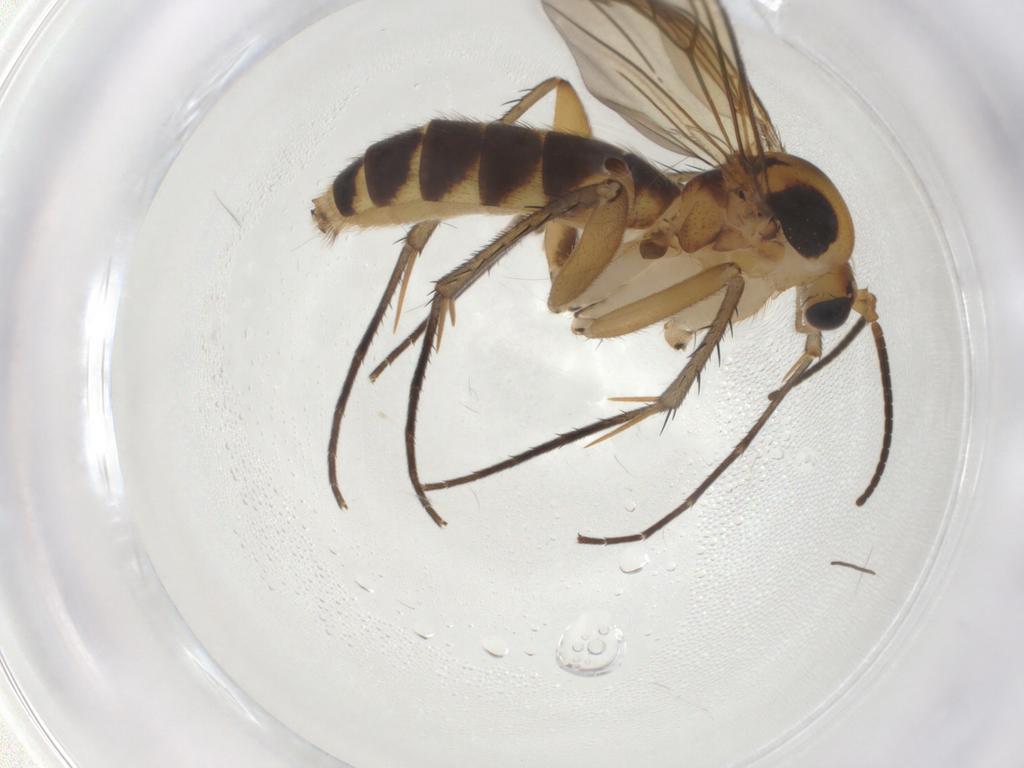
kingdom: Animalia
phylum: Arthropoda
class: Insecta
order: Diptera
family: Mycetophilidae
